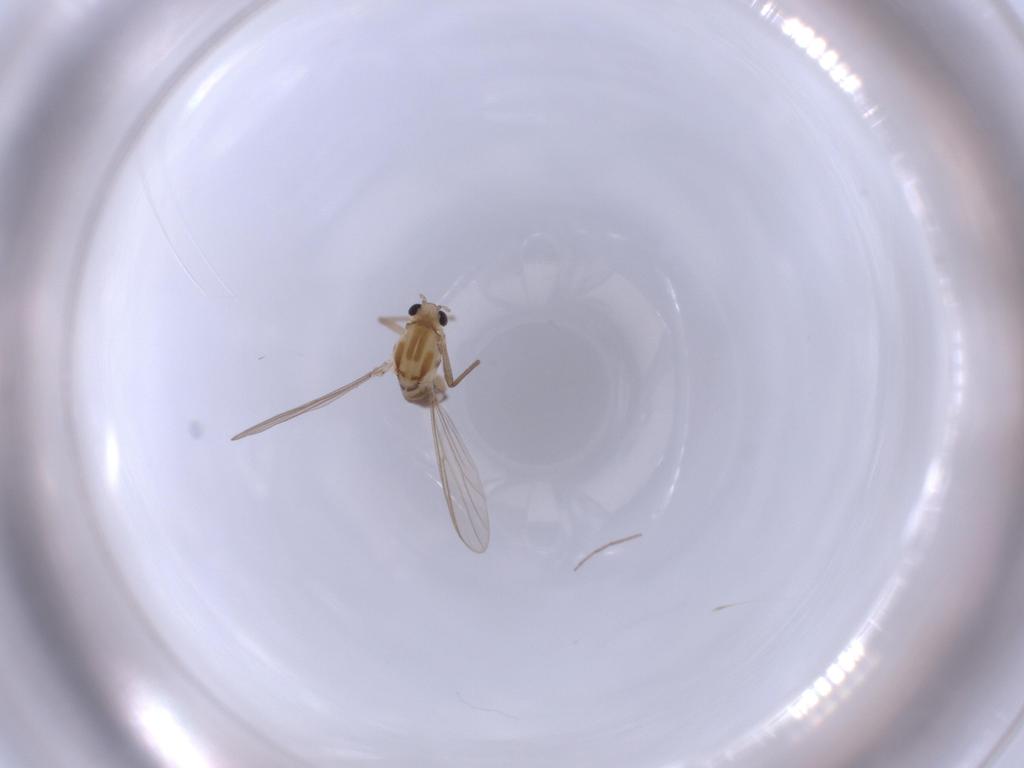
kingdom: Animalia
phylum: Arthropoda
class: Insecta
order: Diptera
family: Chironomidae
